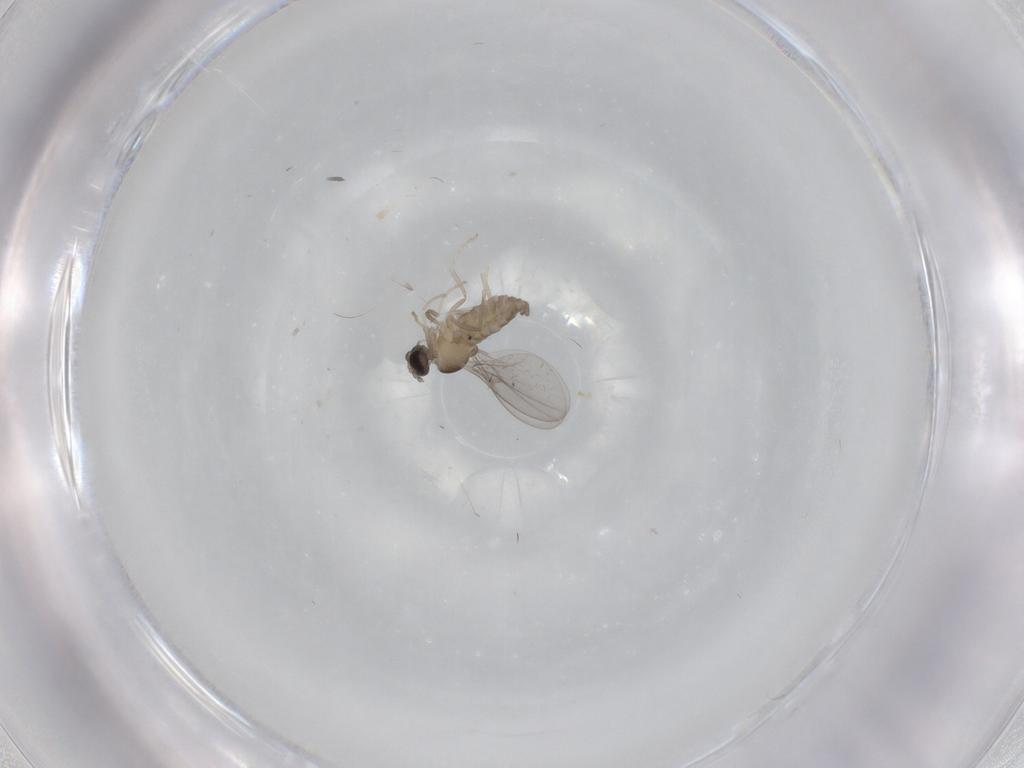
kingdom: Animalia
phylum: Arthropoda
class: Insecta
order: Diptera
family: Cecidomyiidae
